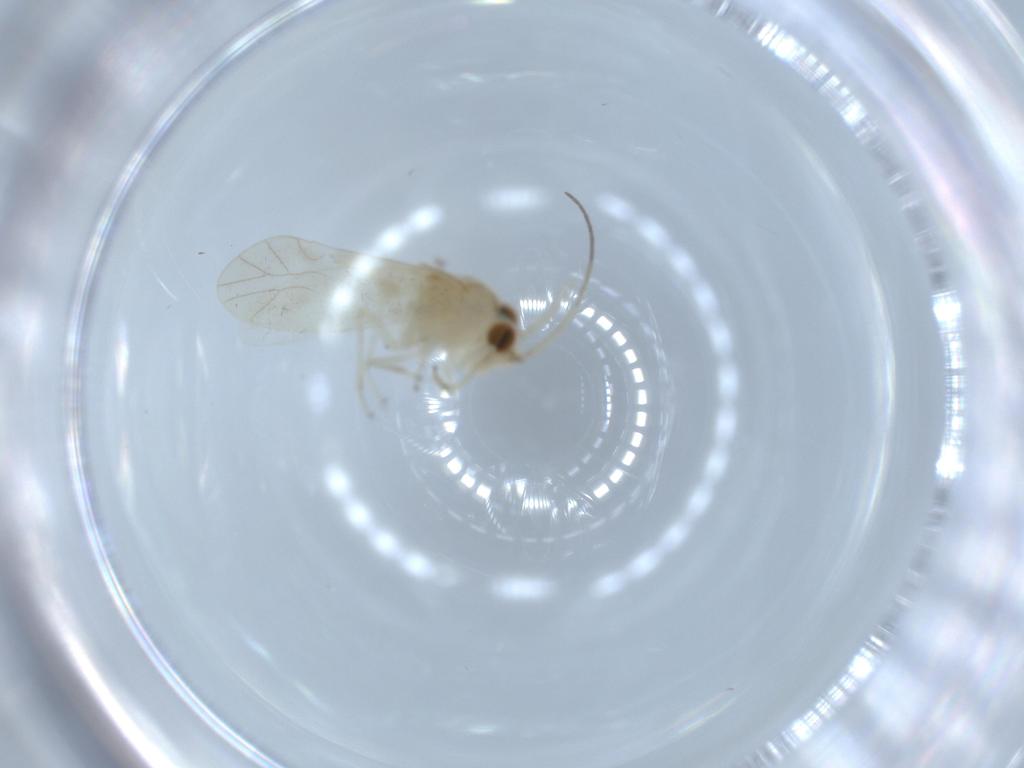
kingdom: Animalia
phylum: Arthropoda
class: Insecta
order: Psocodea
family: Caeciliusidae
